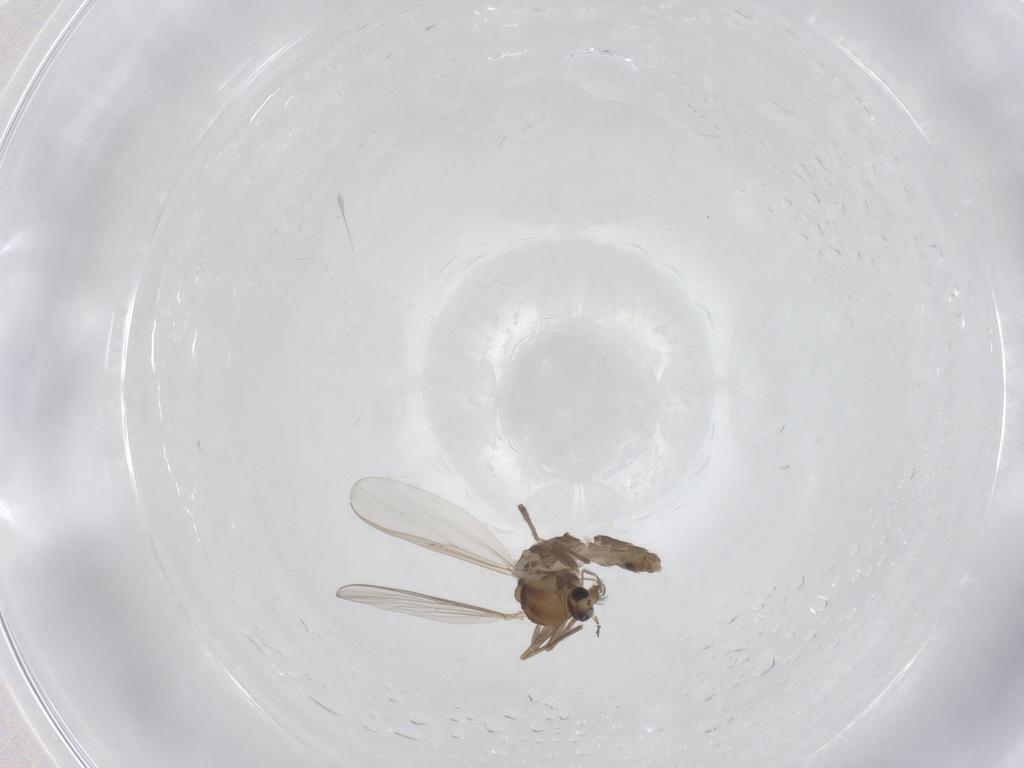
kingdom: Animalia
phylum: Arthropoda
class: Insecta
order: Diptera
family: Chironomidae
